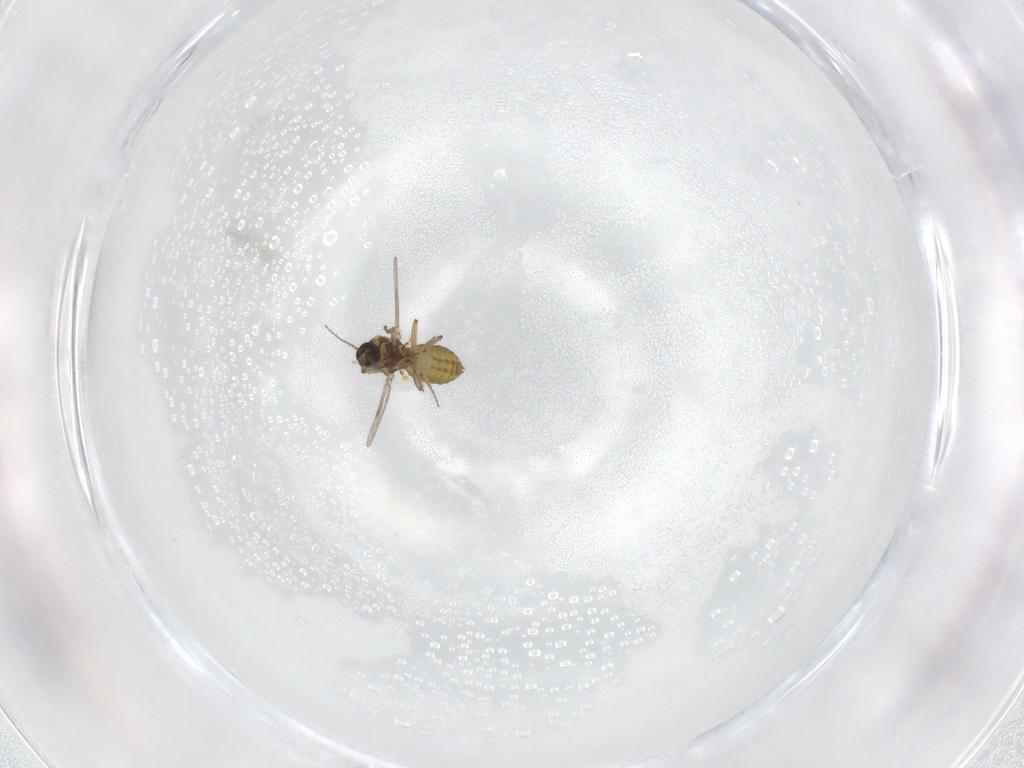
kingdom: Animalia
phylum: Arthropoda
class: Insecta
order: Diptera
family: Ceratopogonidae
